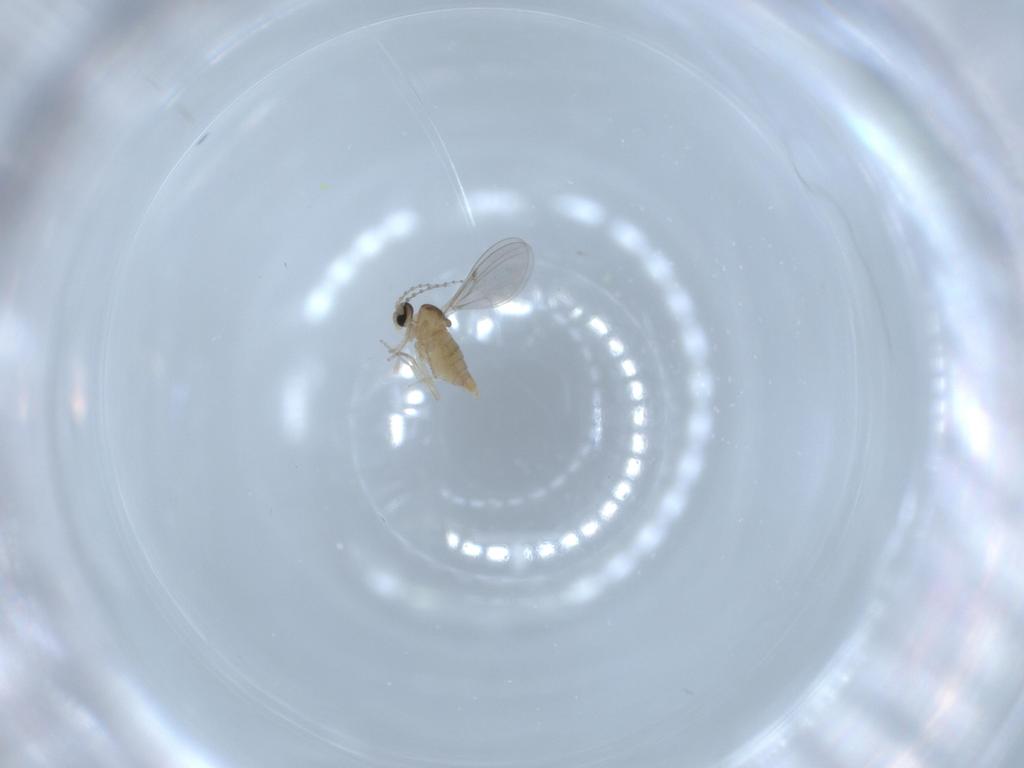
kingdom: Animalia
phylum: Arthropoda
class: Insecta
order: Diptera
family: Cecidomyiidae
